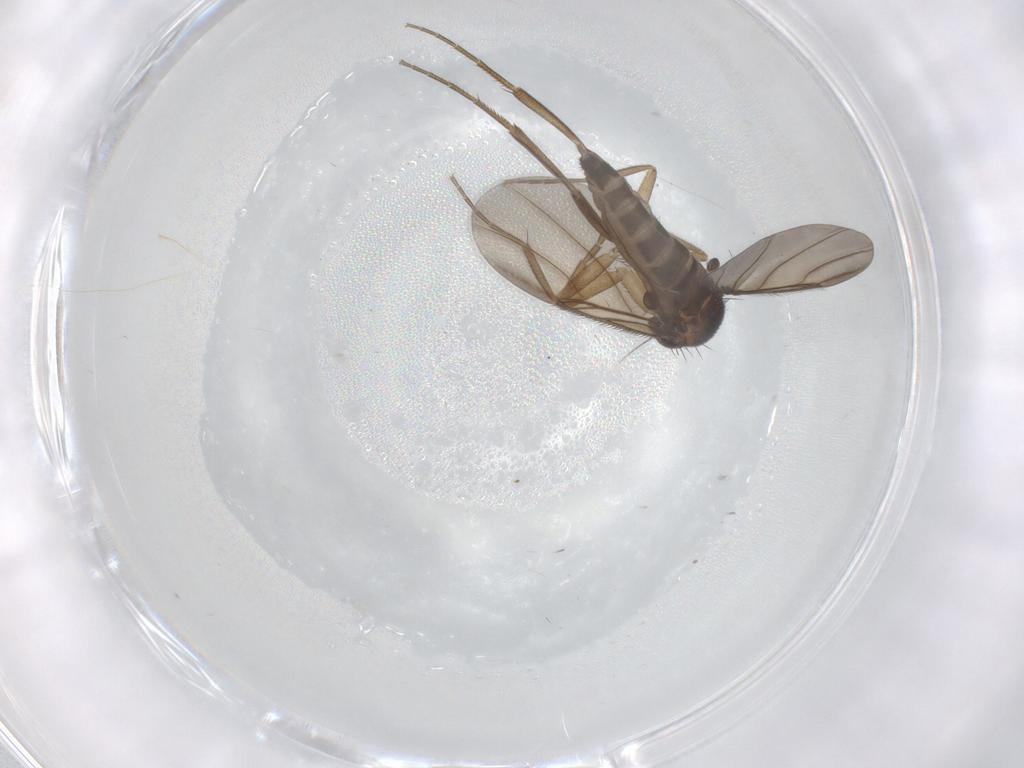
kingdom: Animalia
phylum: Arthropoda
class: Insecta
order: Diptera
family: Phoridae
